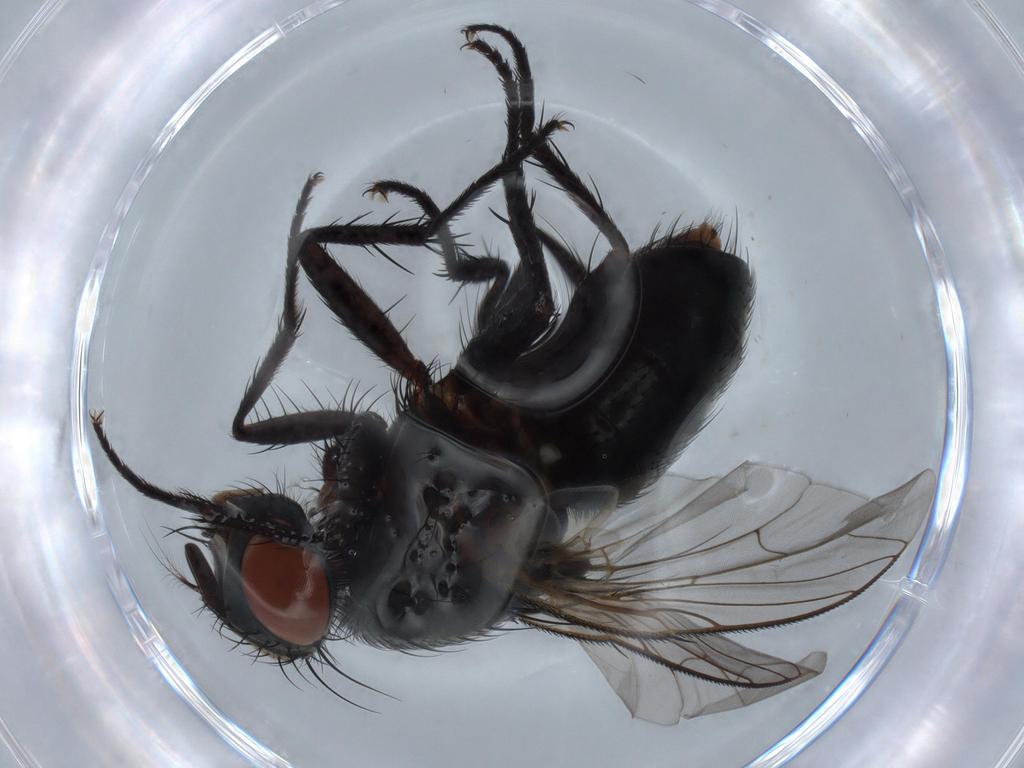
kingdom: Animalia
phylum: Arthropoda
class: Insecta
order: Diptera
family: Sarcophagidae
